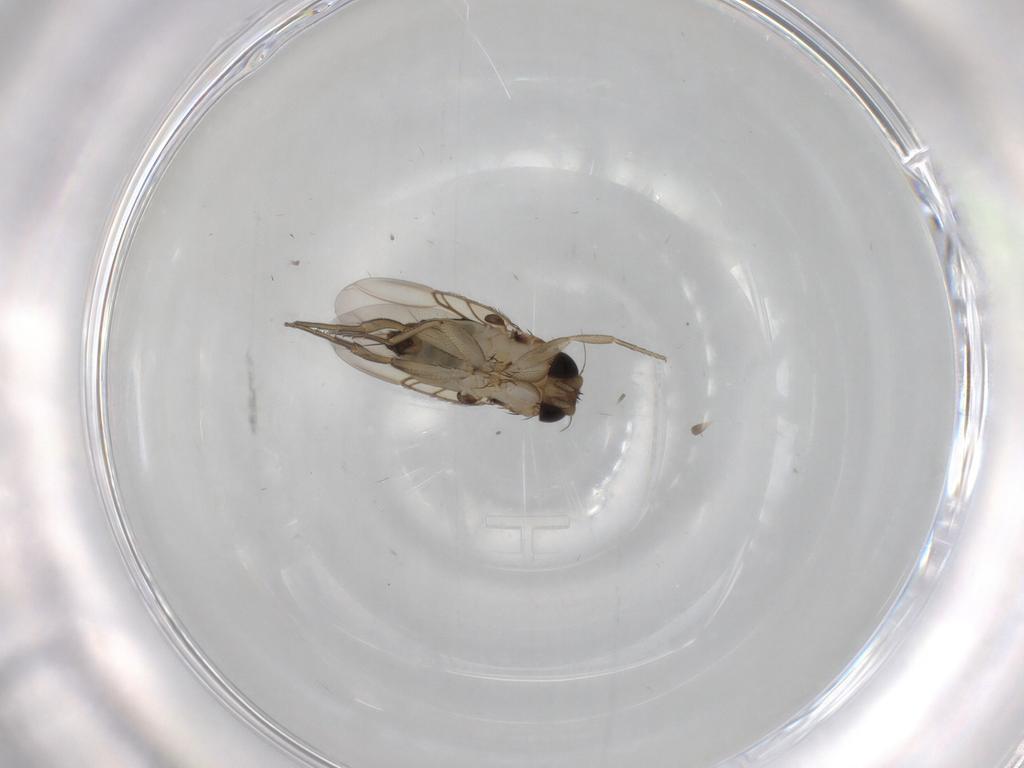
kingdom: Animalia
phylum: Arthropoda
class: Insecta
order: Diptera
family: Phoridae
